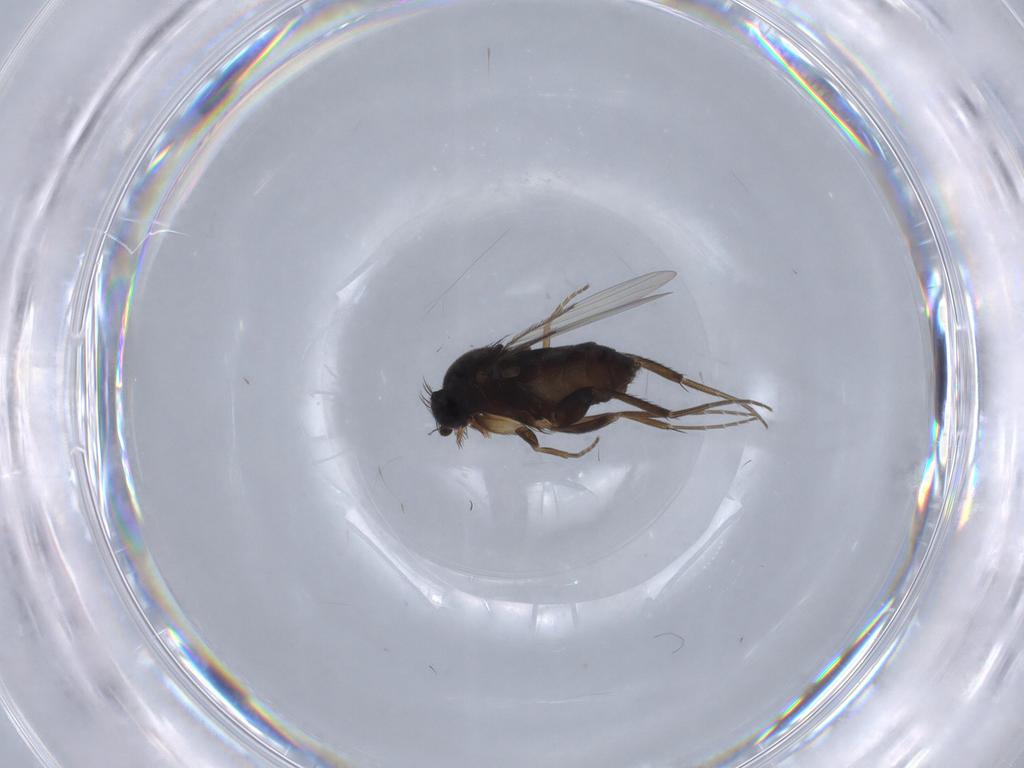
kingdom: Animalia
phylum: Arthropoda
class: Insecta
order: Diptera
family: Phoridae
